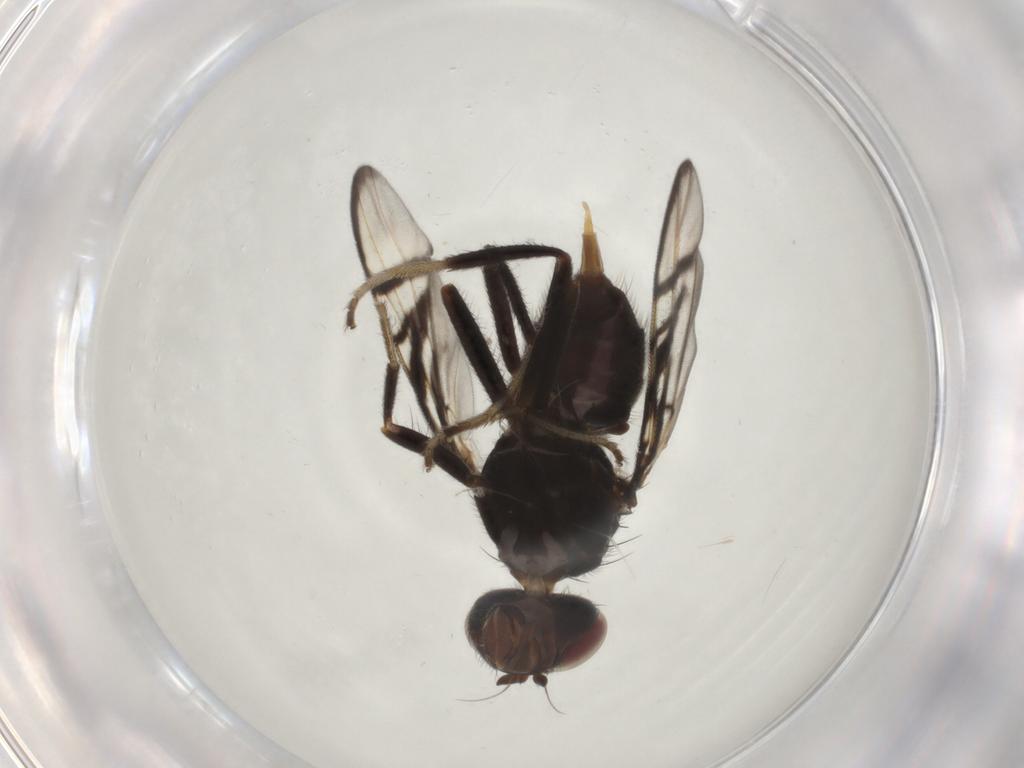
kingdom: Animalia
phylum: Arthropoda
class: Insecta
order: Diptera
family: Platystomatidae
